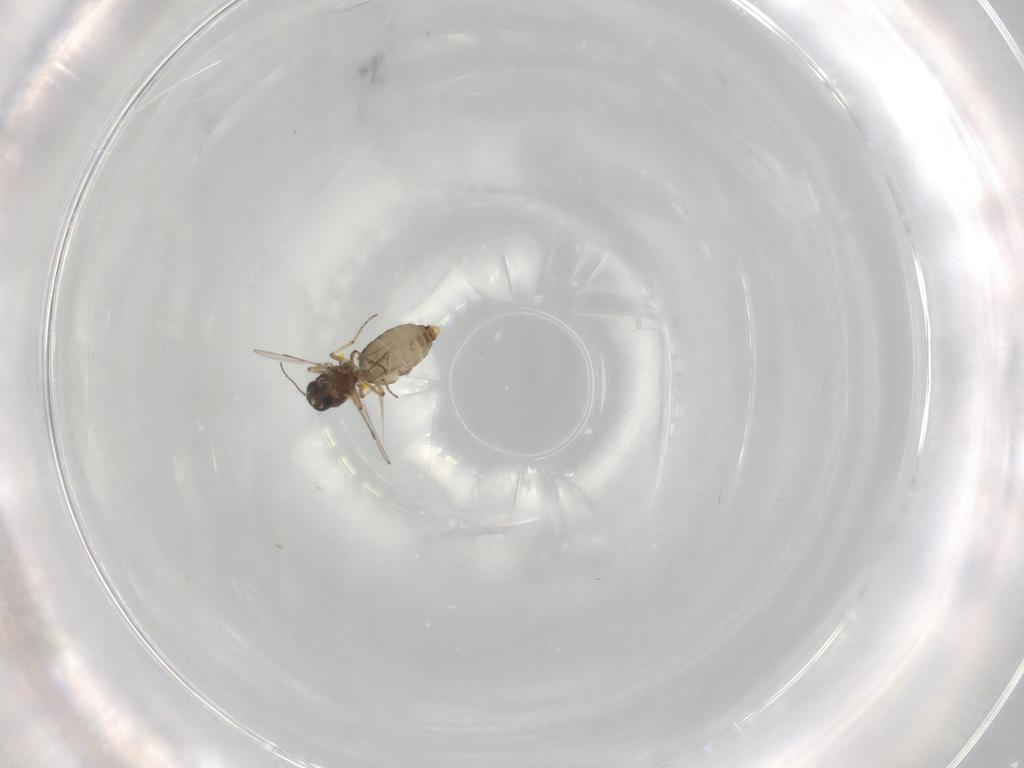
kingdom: Animalia
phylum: Arthropoda
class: Insecta
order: Diptera
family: Ceratopogonidae
